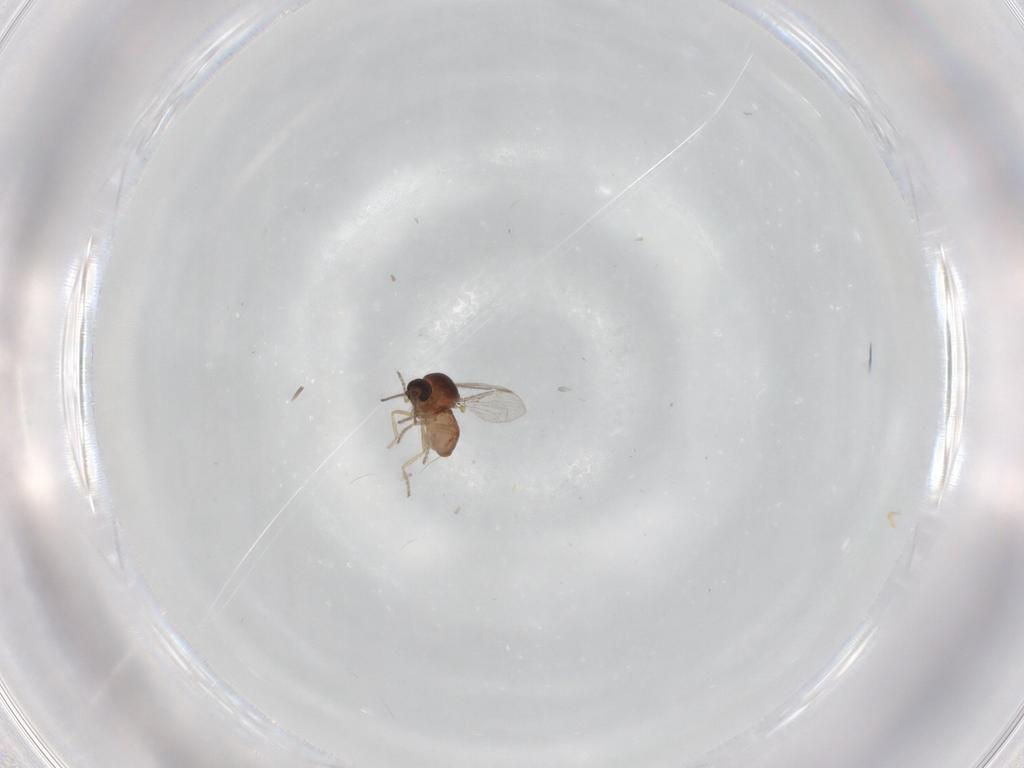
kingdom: Animalia
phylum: Arthropoda
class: Insecta
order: Diptera
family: Ceratopogonidae
